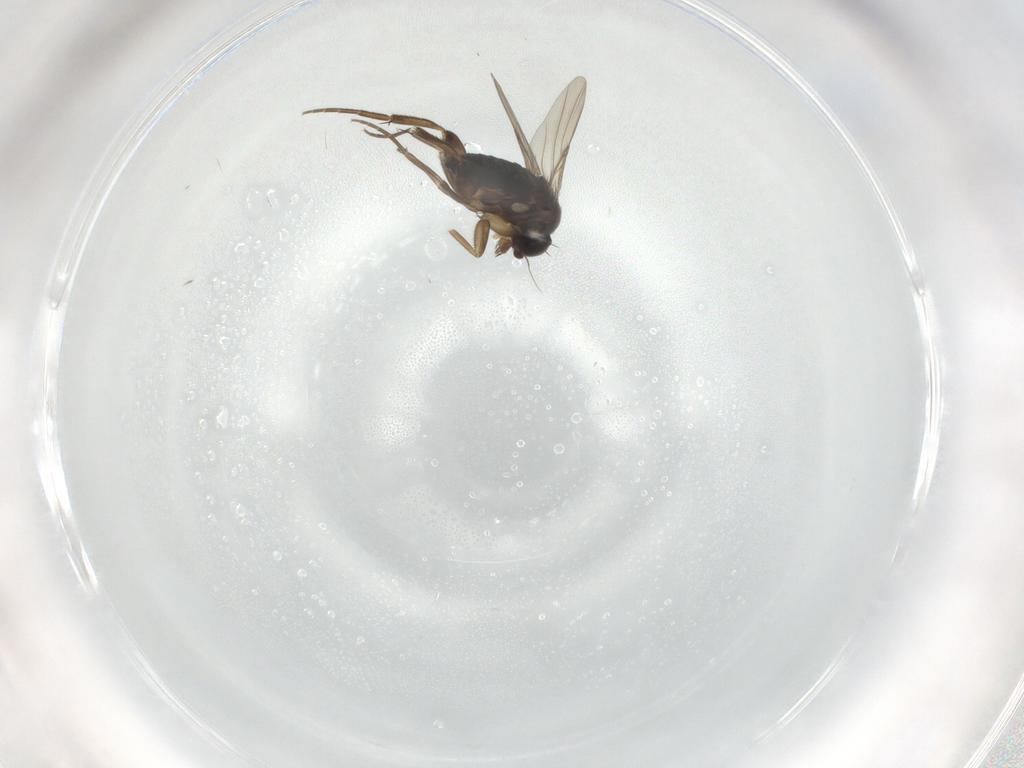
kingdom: Animalia
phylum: Arthropoda
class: Insecta
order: Diptera
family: Phoridae
